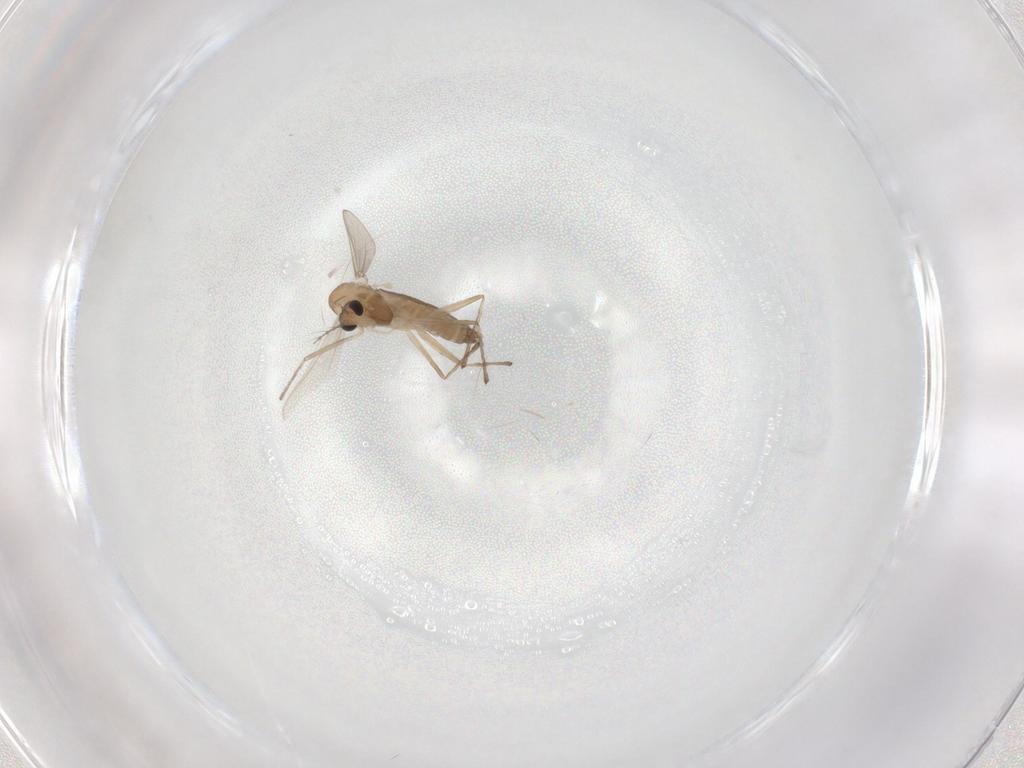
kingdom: Animalia
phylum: Arthropoda
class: Insecta
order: Diptera
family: Chironomidae
